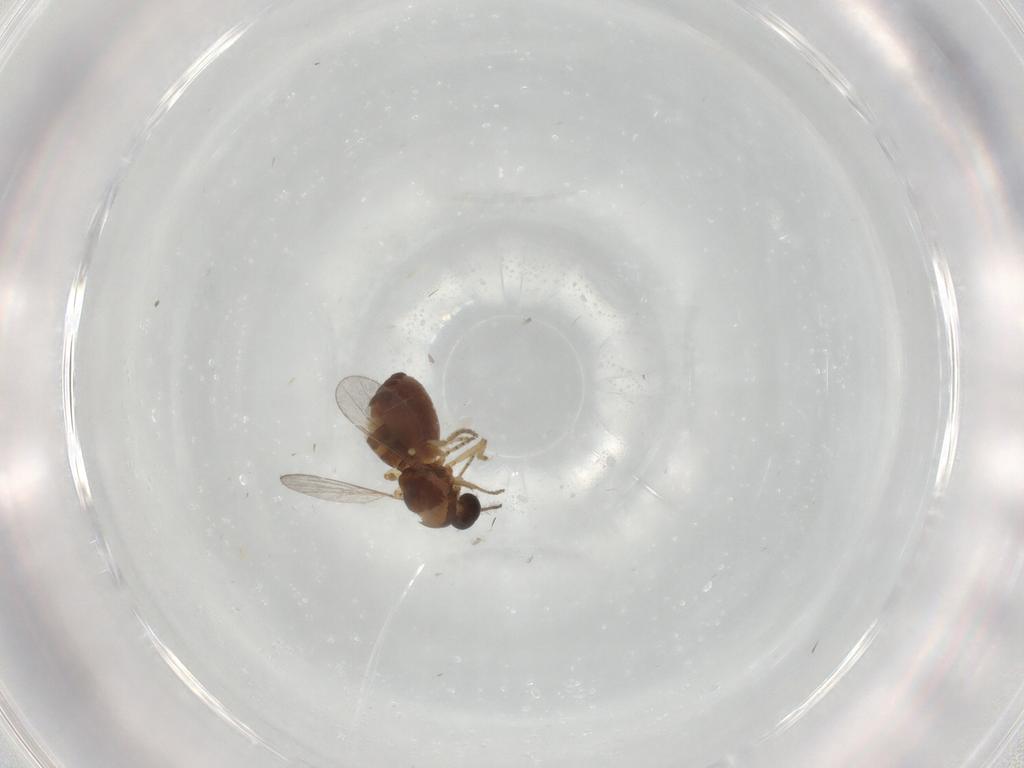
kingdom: Animalia
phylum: Arthropoda
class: Insecta
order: Diptera
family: Ceratopogonidae
